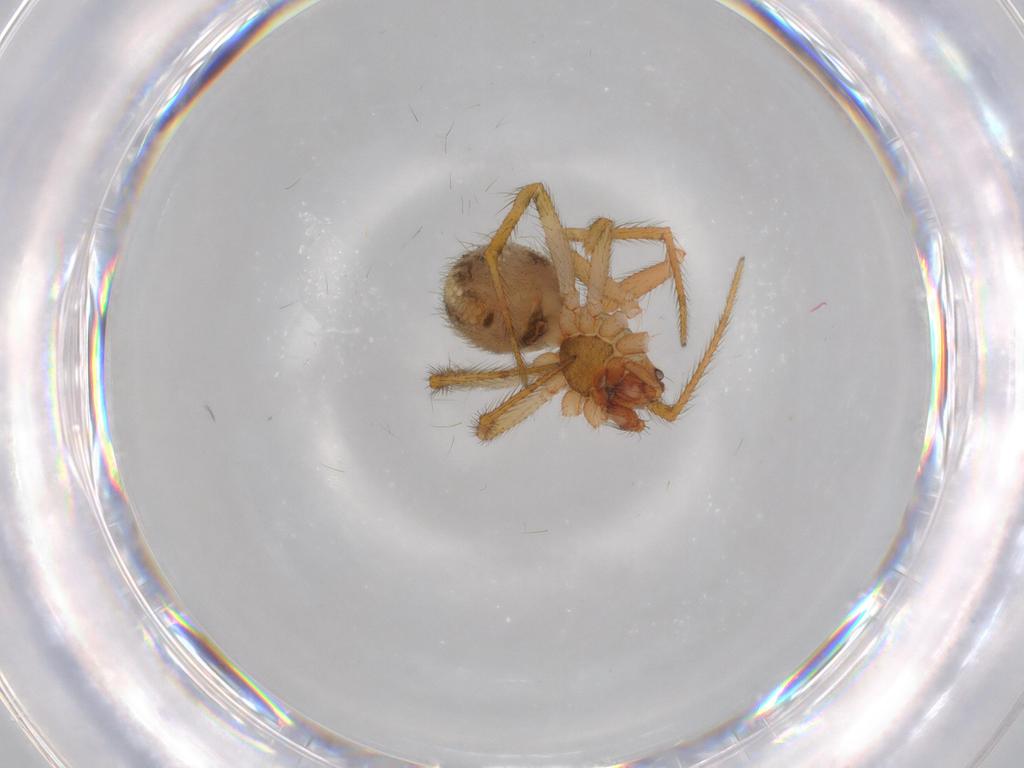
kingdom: Animalia
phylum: Arthropoda
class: Arachnida
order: Araneae
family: Theridiidae
